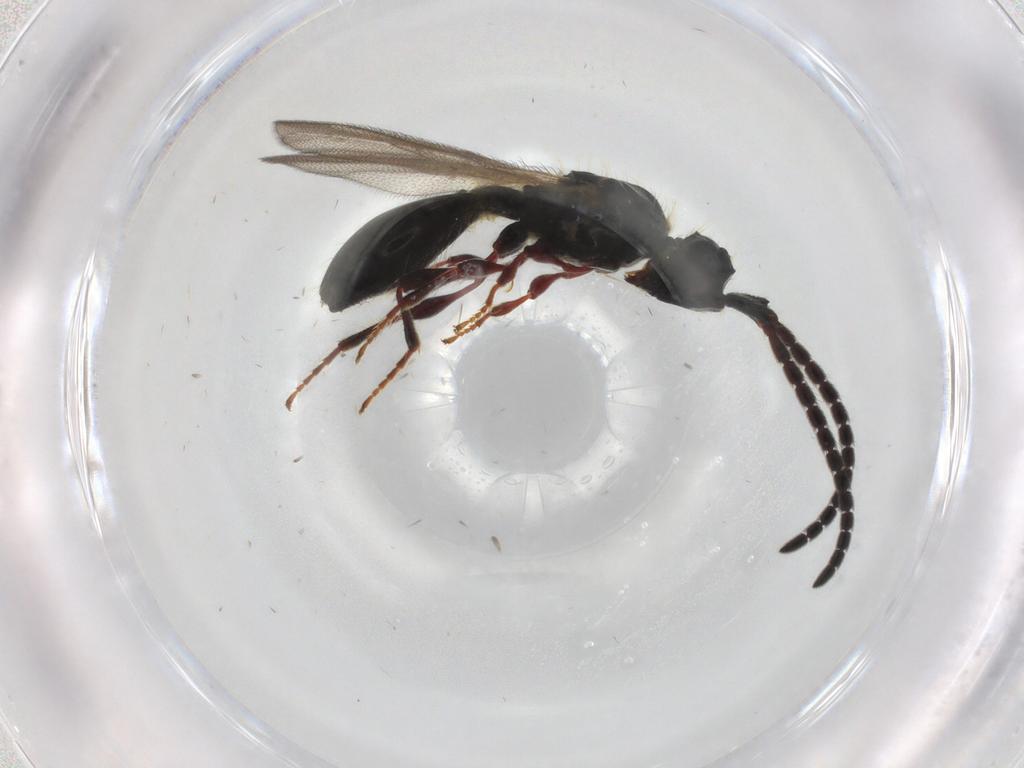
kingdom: Animalia
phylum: Arthropoda
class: Insecta
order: Hymenoptera
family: Diapriidae
